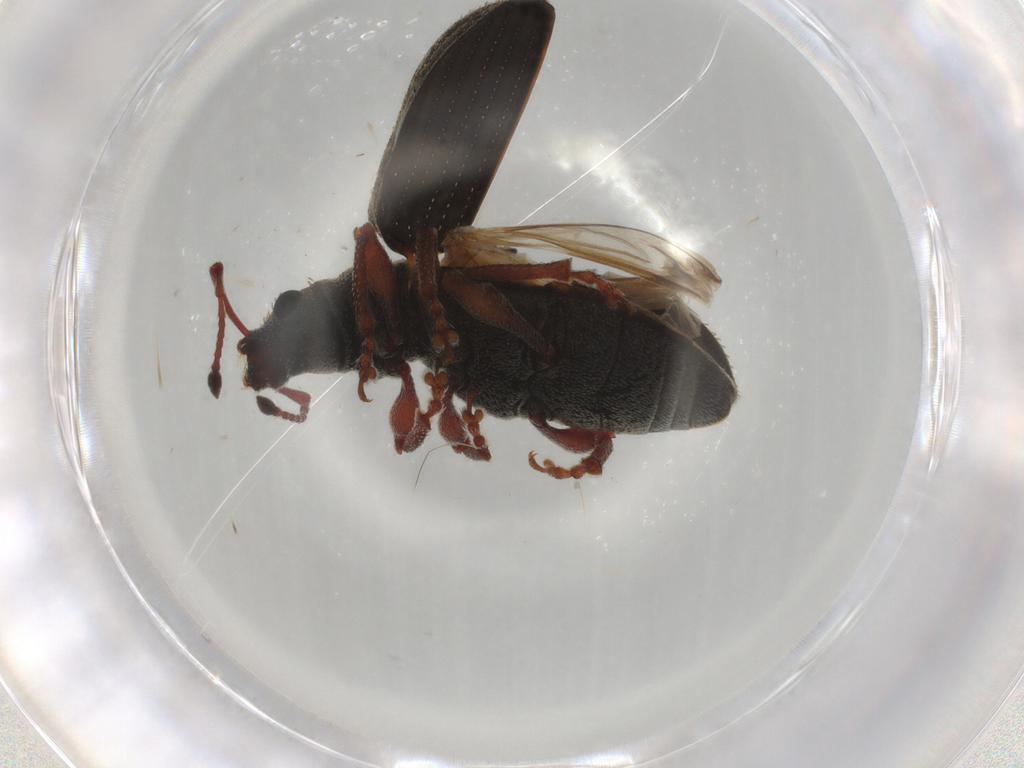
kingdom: Animalia
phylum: Arthropoda
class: Insecta
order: Coleoptera
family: Curculionidae
